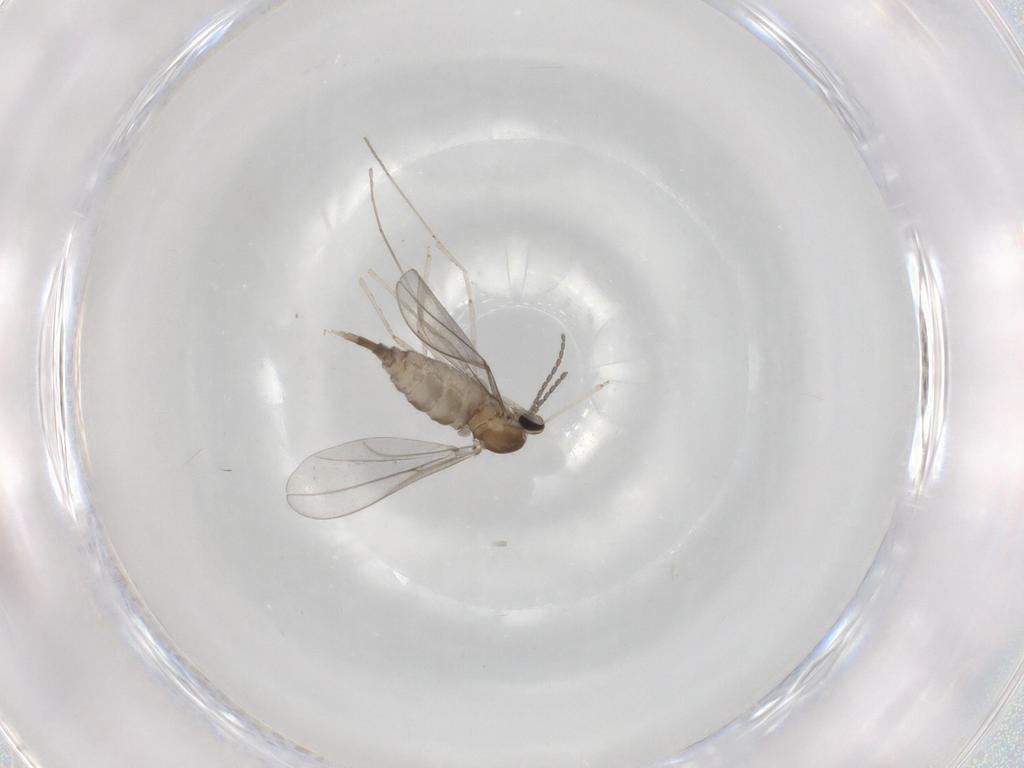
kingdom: Animalia
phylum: Arthropoda
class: Insecta
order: Diptera
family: Cecidomyiidae
